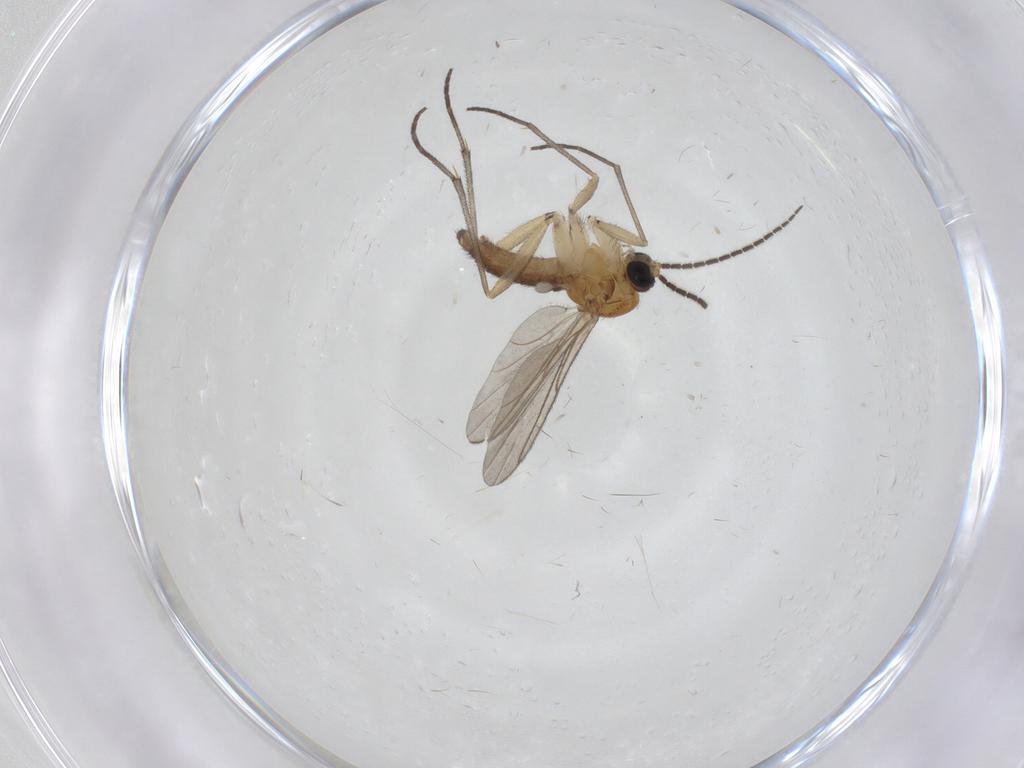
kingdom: Animalia
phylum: Arthropoda
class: Insecta
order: Diptera
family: Sciaridae
